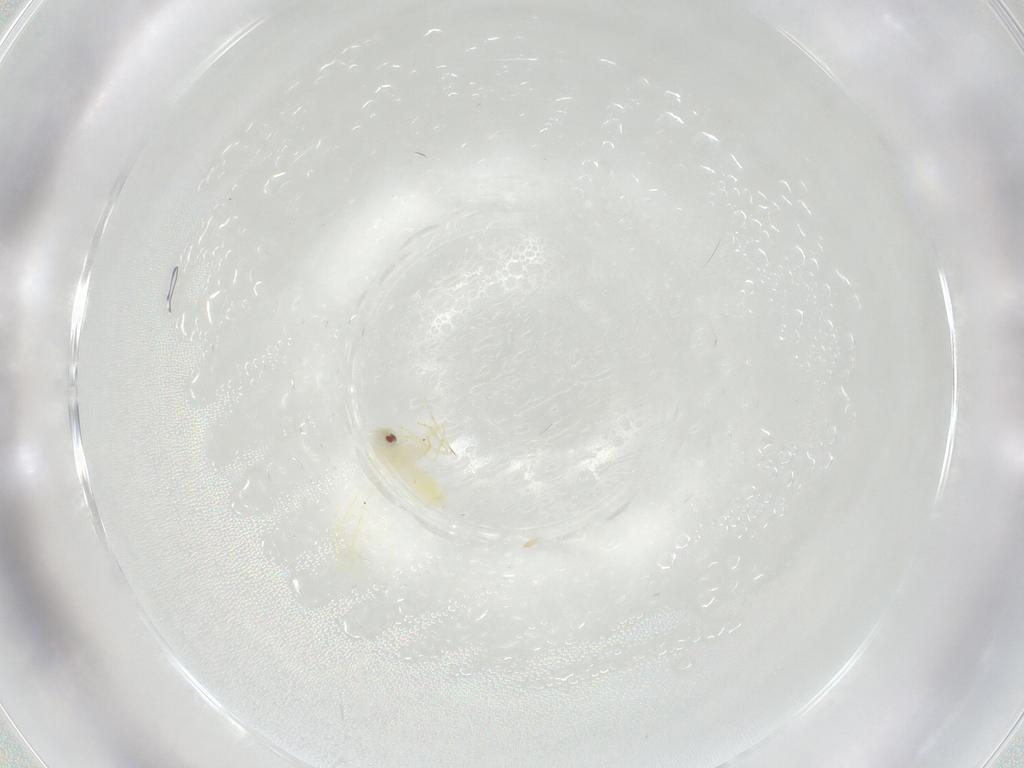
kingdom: Animalia
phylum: Arthropoda
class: Insecta
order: Hemiptera
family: Aleyrodidae
